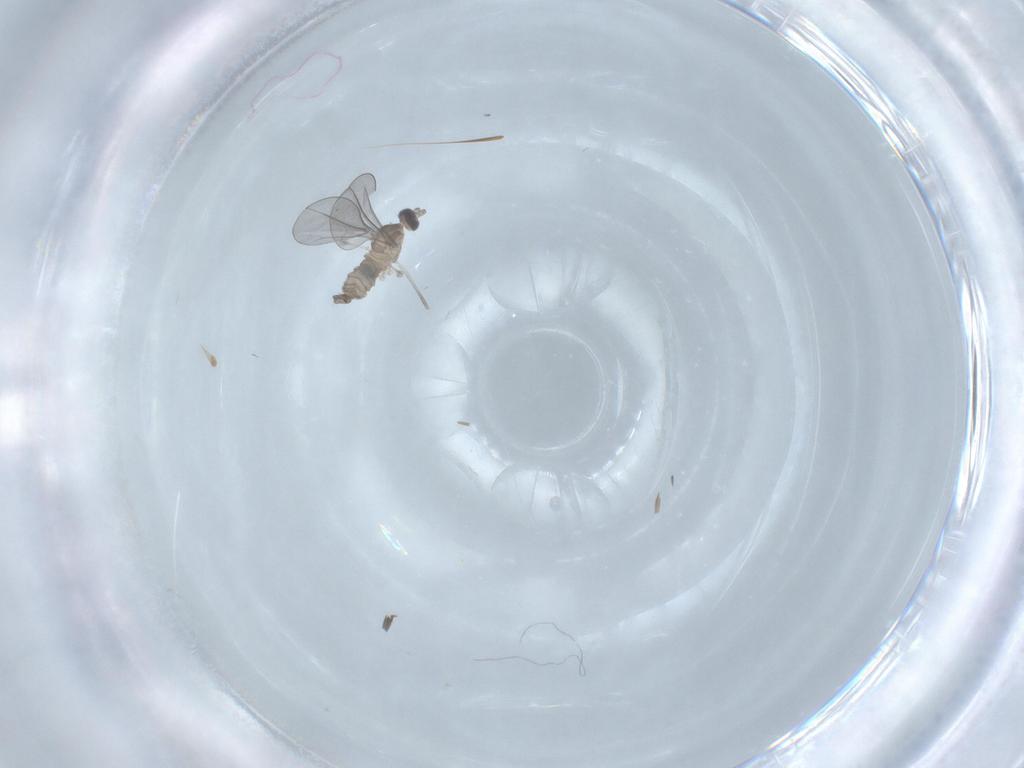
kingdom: Animalia
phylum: Arthropoda
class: Insecta
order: Diptera
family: Cecidomyiidae
